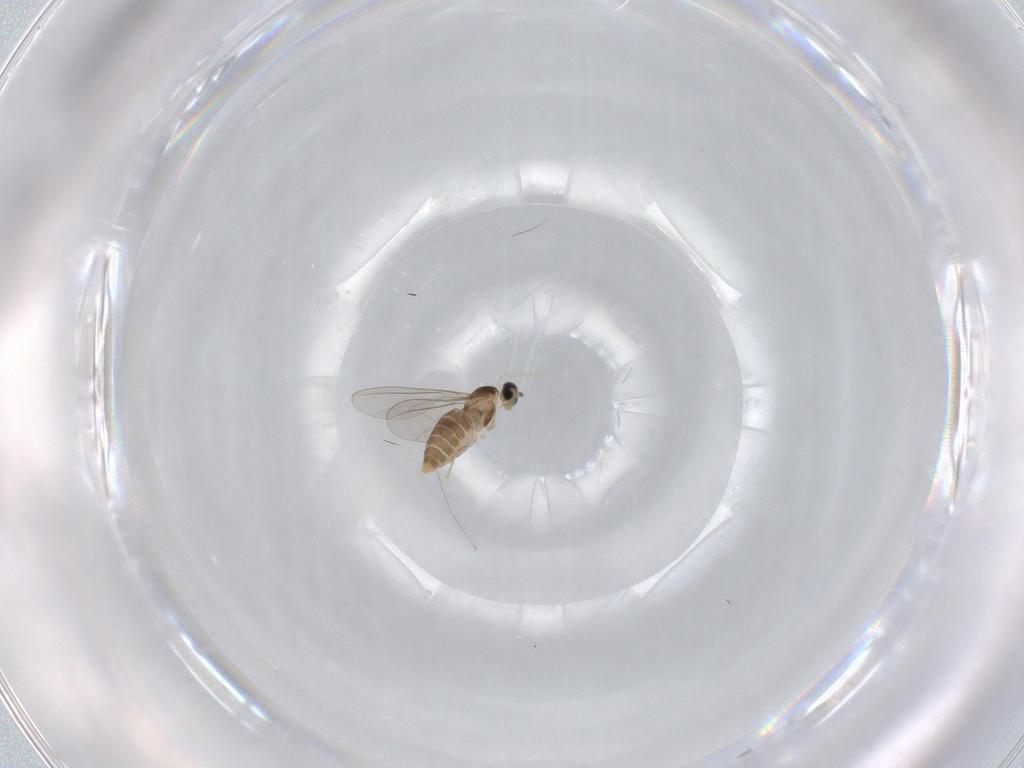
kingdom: Animalia
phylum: Arthropoda
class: Insecta
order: Diptera
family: Cecidomyiidae
